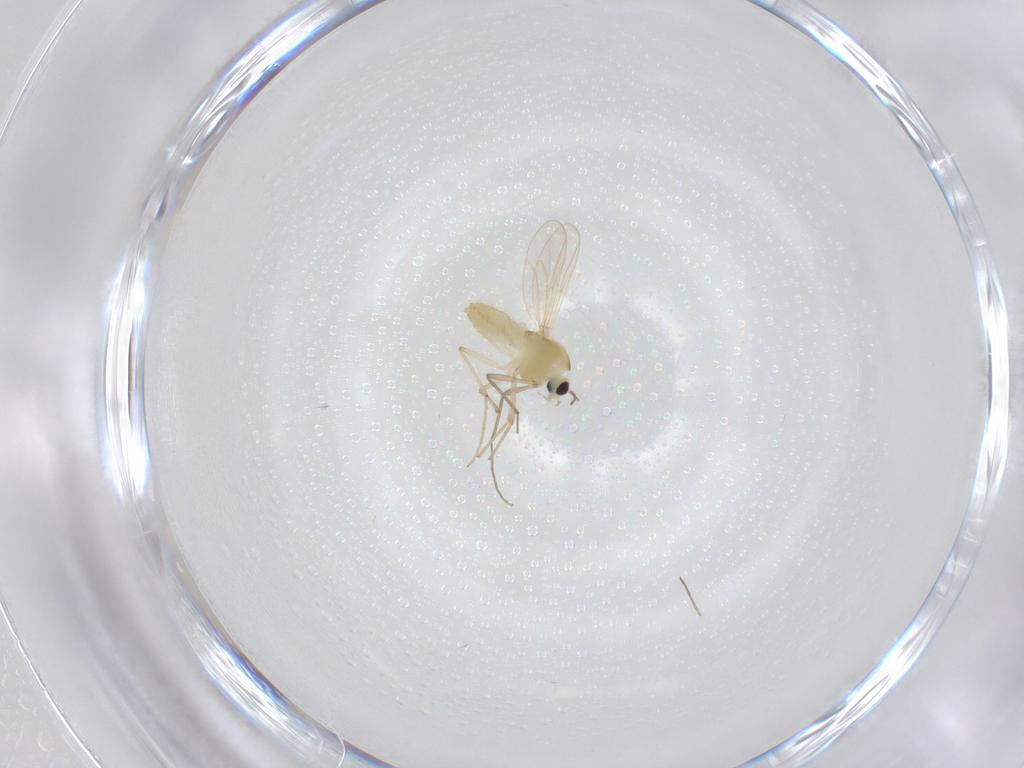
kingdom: Animalia
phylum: Arthropoda
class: Insecta
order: Diptera
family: Chironomidae
